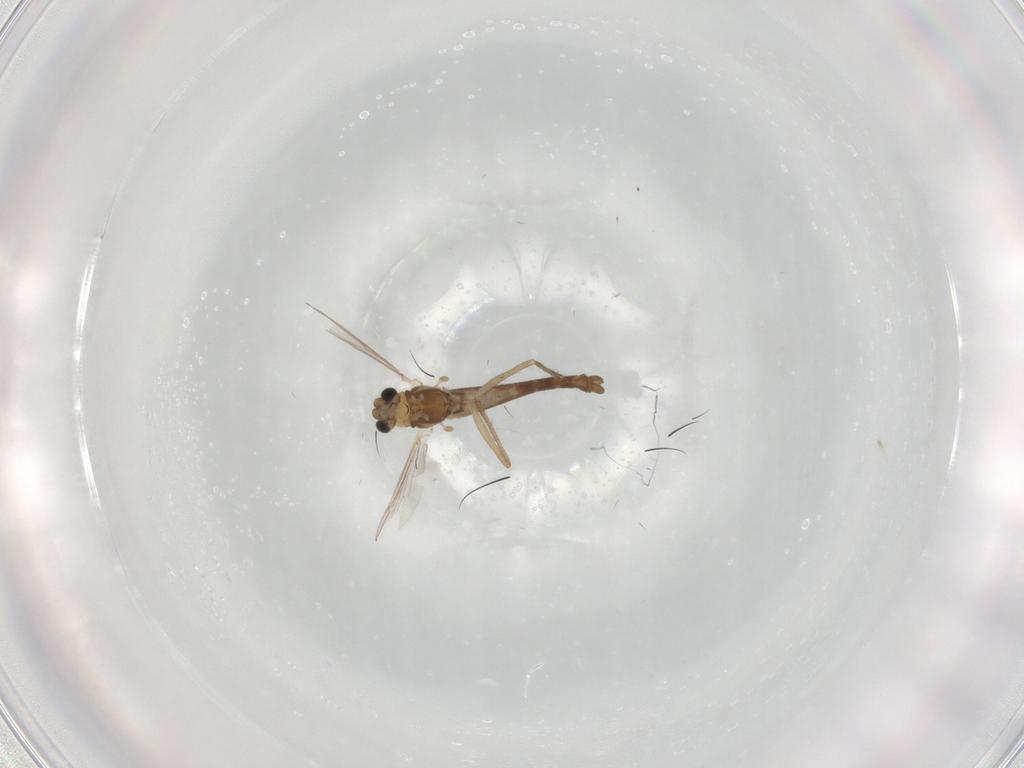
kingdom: Animalia
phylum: Arthropoda
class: Insecta
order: Diptera
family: Chironomidae
